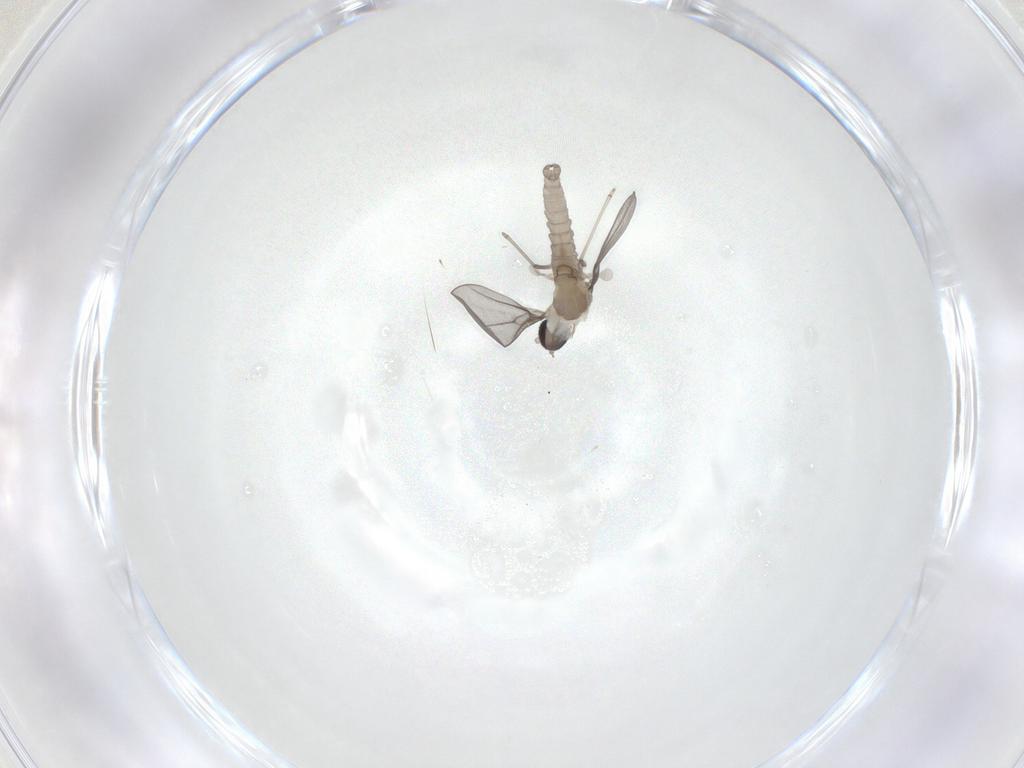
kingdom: Animalia
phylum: Arthropoda
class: Insecta
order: Diptera
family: Cecidomyiidae
